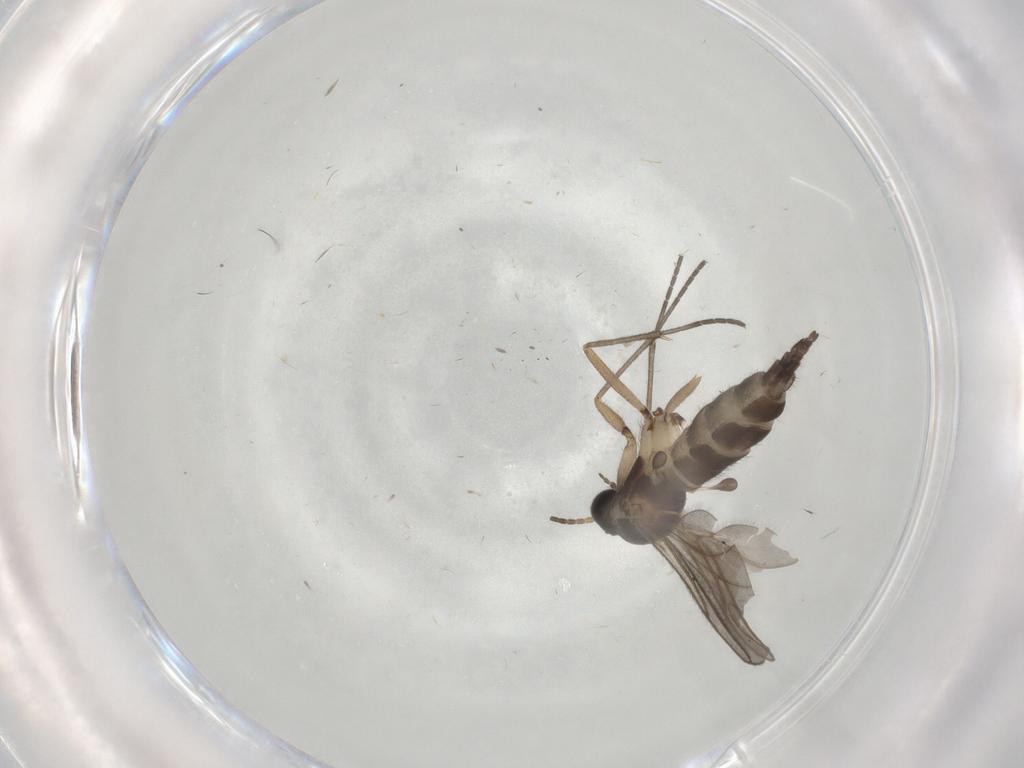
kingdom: Animalia
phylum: Arthropoda
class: Insecta
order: Diptera
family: Sciaridae
